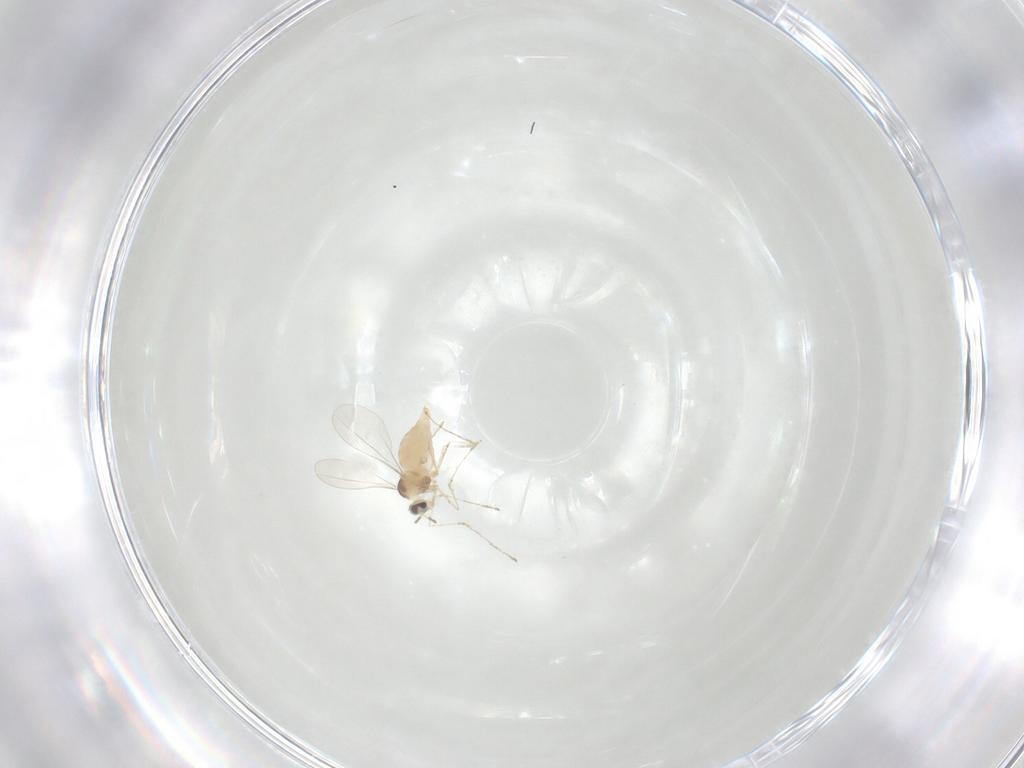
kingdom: Animalia
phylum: Arthropoda
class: Insecta
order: Diptera
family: Cecidomyiidae
